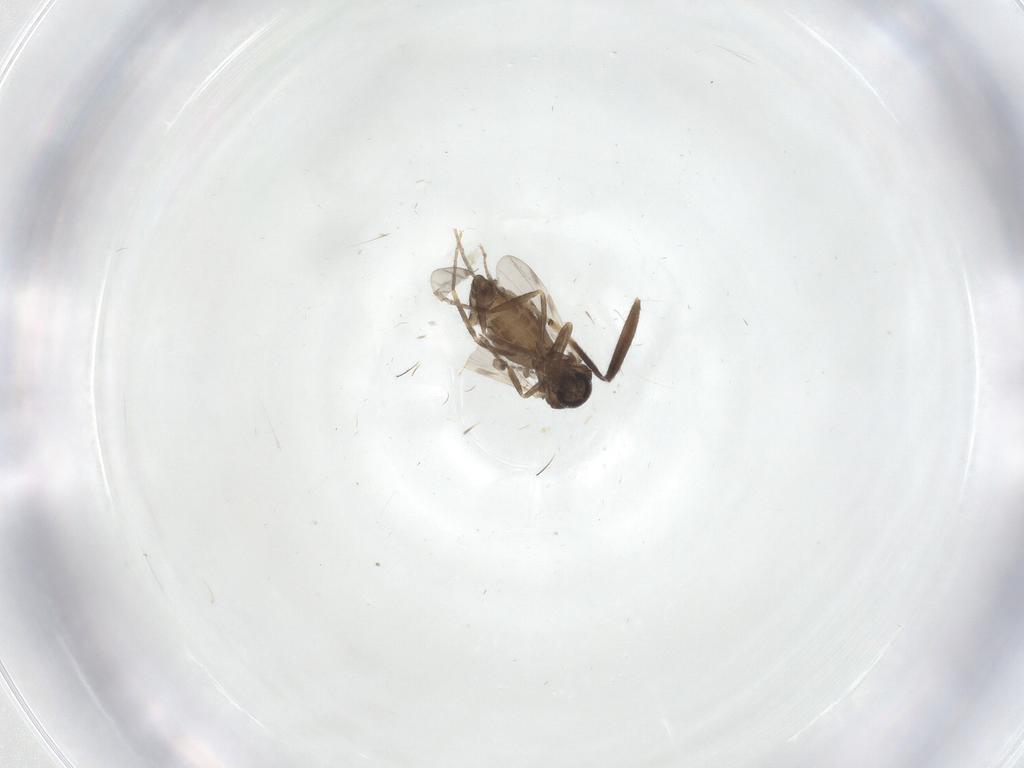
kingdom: Animalia
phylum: Arthropoda
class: Insecta
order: Diptera
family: Ceratopogonidae
